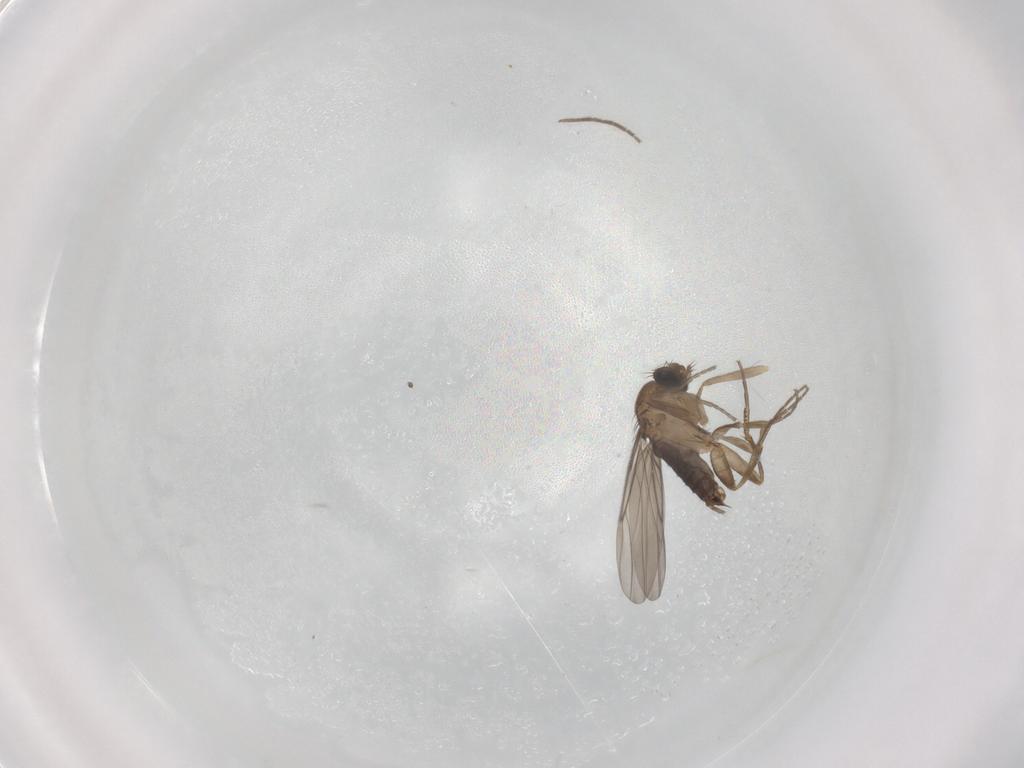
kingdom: Animalia
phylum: Arthropoda
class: Insecta
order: Diptera
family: Phoridae
